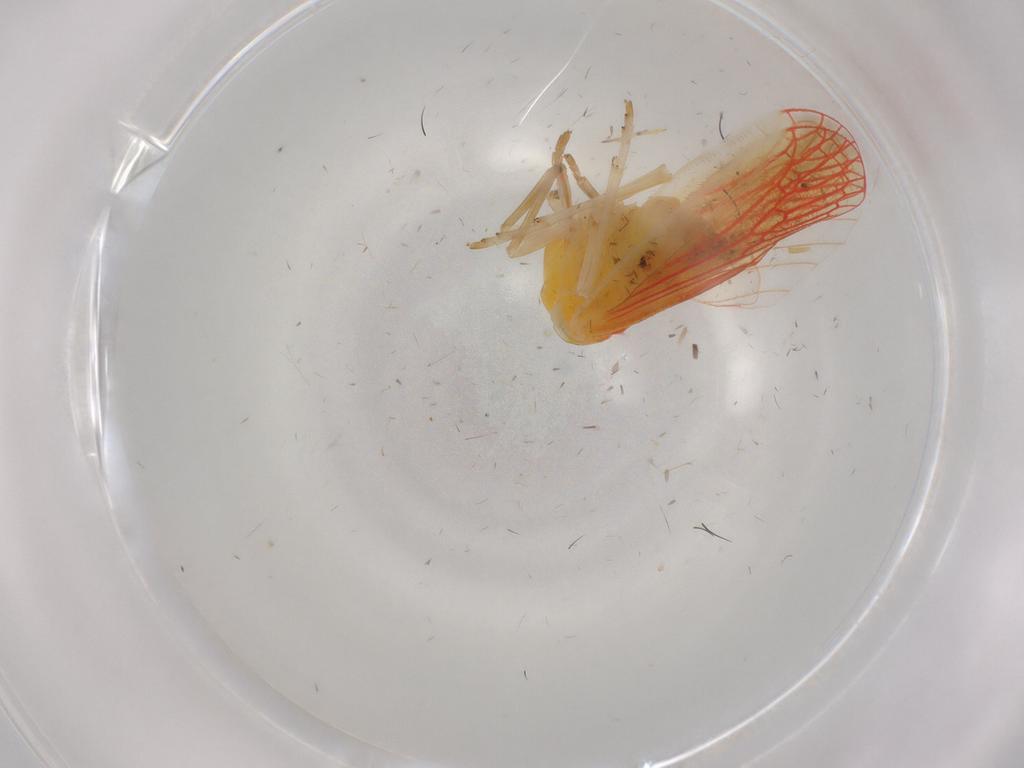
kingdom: Animalia
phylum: Arthropoda
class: Insecta
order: Hemiptera
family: Derbidae
